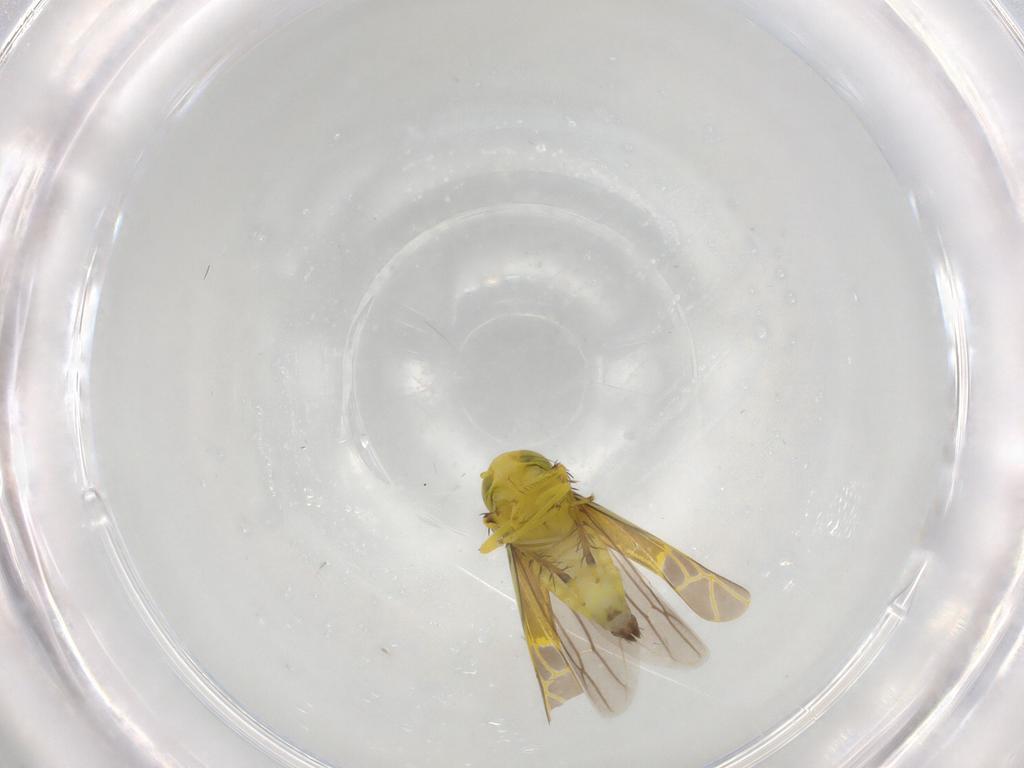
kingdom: Animalia
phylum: Arthropoda
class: Insecta
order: Hemiptera
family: Cicadellidae
